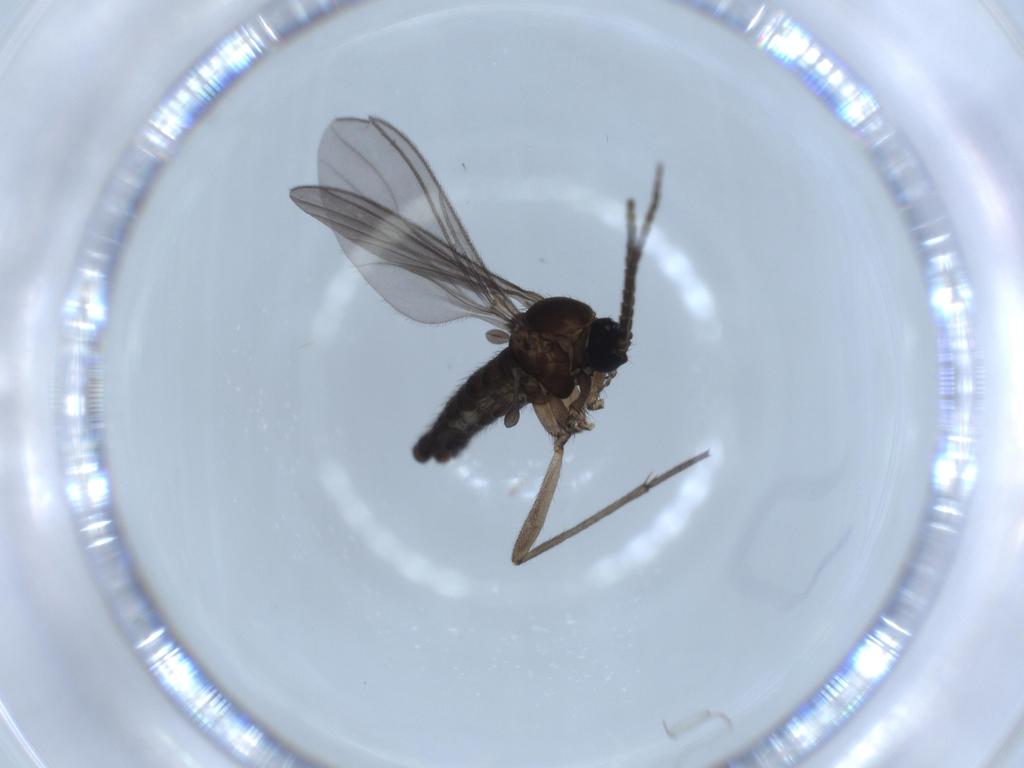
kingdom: Animalia
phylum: Arthropoda
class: Insecta
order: Diptera
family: Sciaridae
